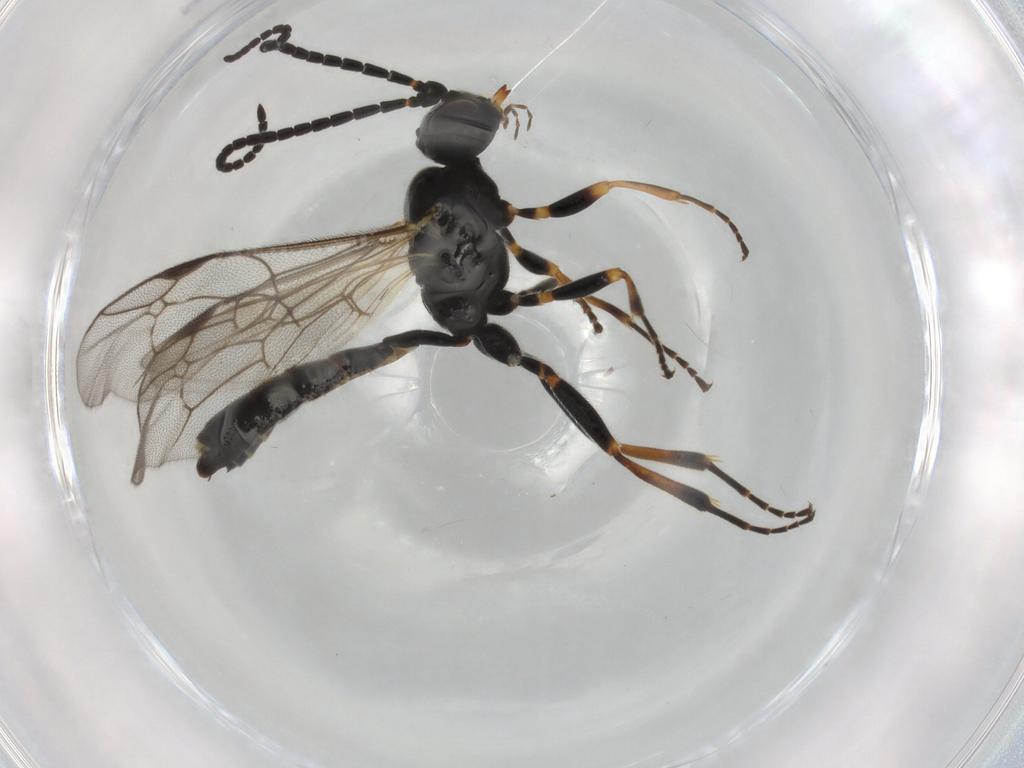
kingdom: Animalia
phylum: Arthropoda
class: Insecta
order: Hymenoptera
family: Ichneumonidae
